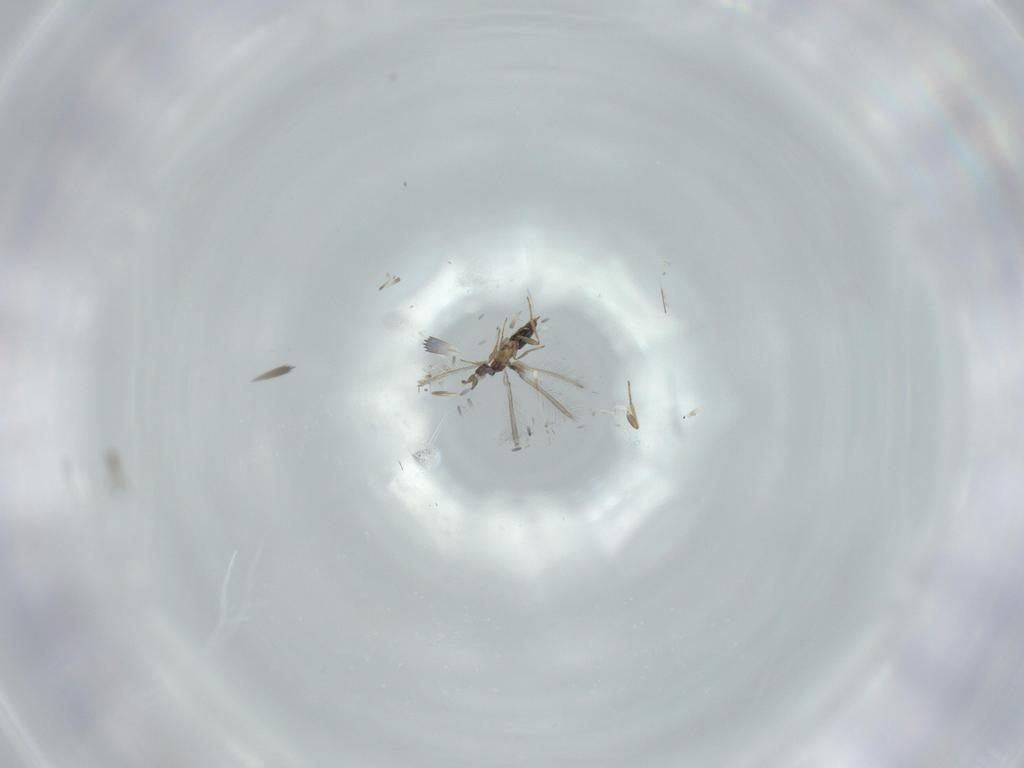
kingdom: Animalia
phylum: Arthropoda
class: Insecta
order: Hymenoptera
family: Mymaridae
